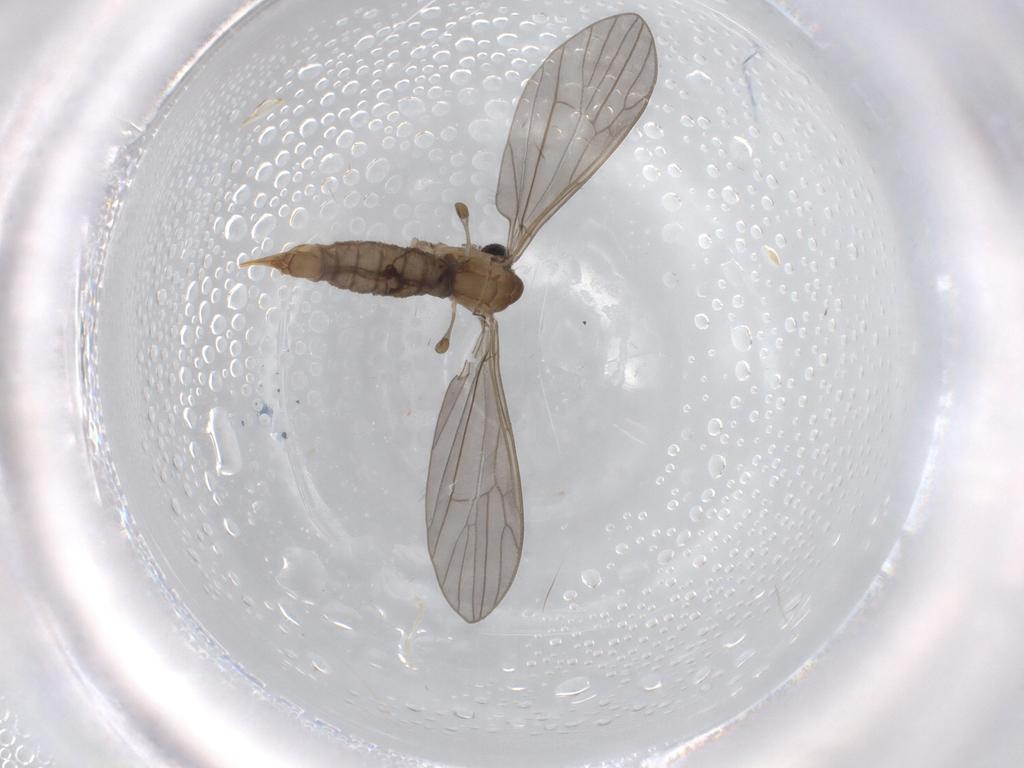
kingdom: Animalia
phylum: Arthropoda
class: Insecta
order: Diptera
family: Limoniidae
